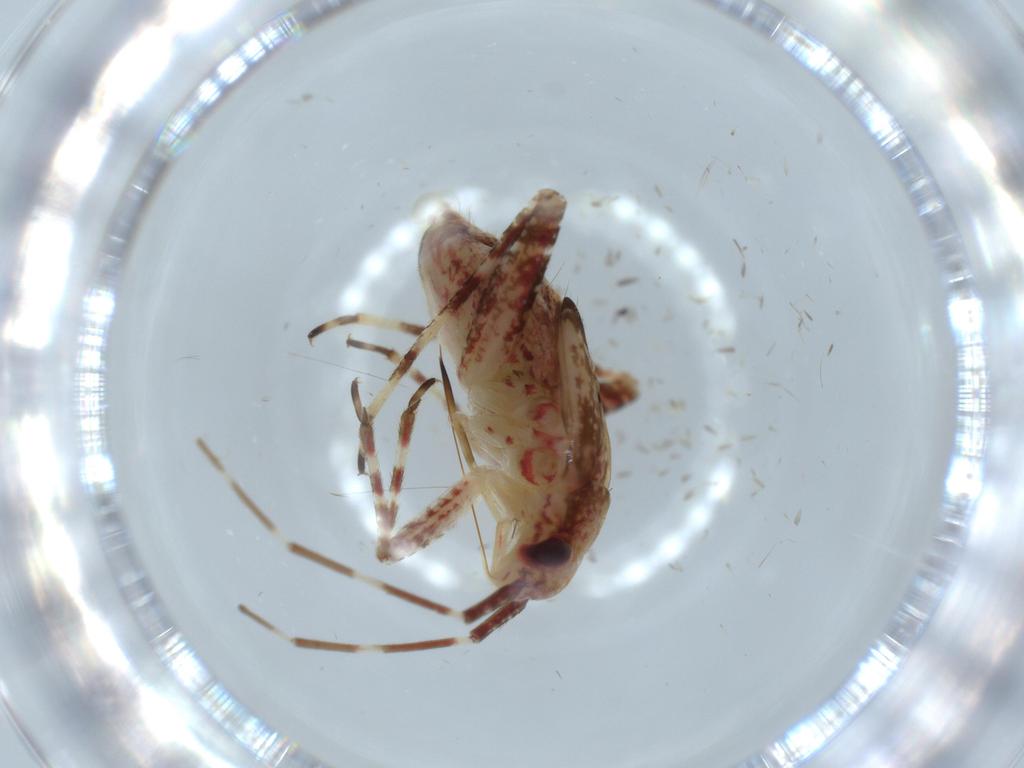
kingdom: Animalia
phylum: Arthropoda
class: Insecta
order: Hemiptera
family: Miridae
